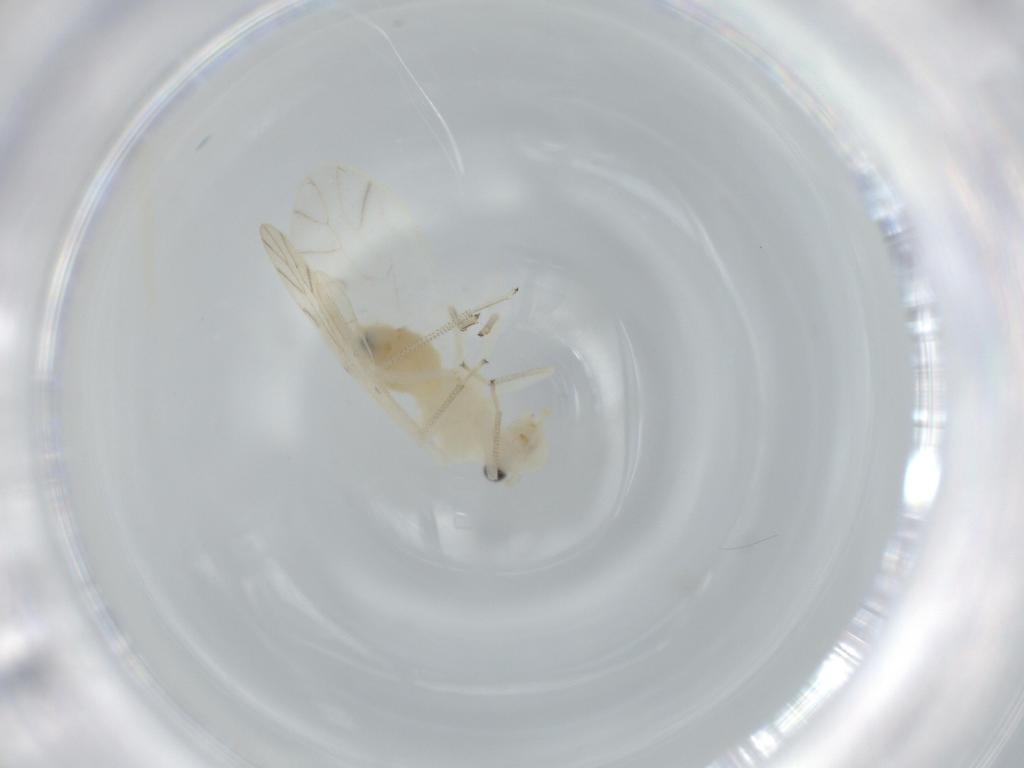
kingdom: Animalia
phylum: Arthropoda
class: Insecta
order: Psocodea
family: Caeciliusidae
